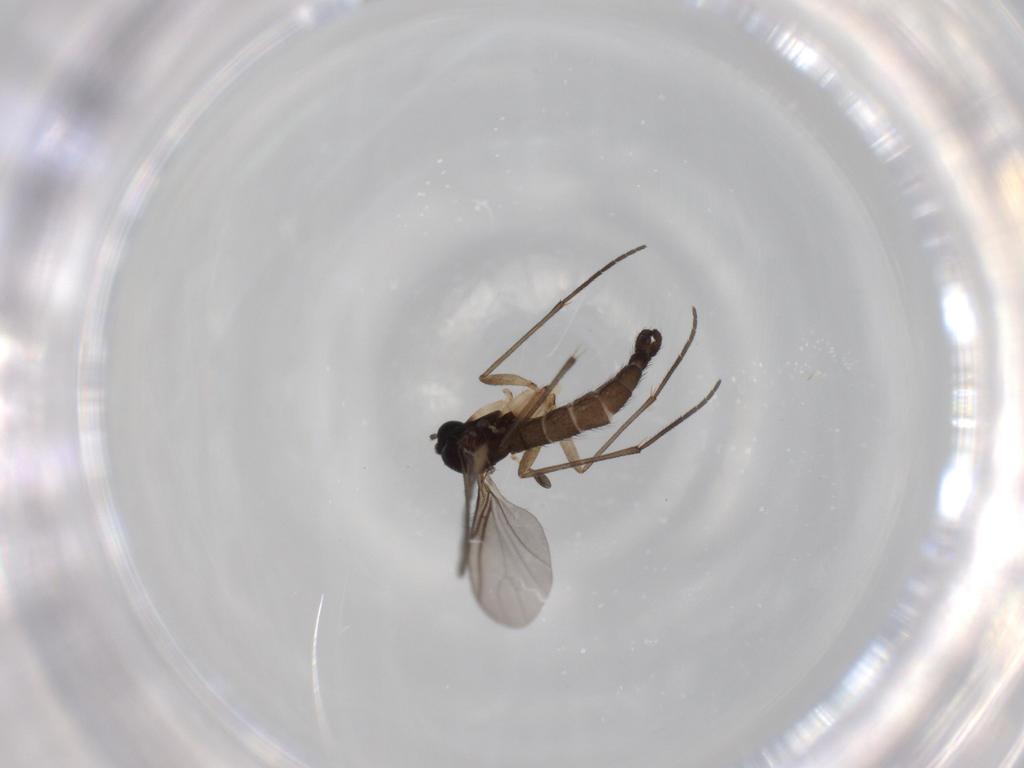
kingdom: Animalia
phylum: Arthropoda
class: Insecta
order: Diptera
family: Sciaridae
